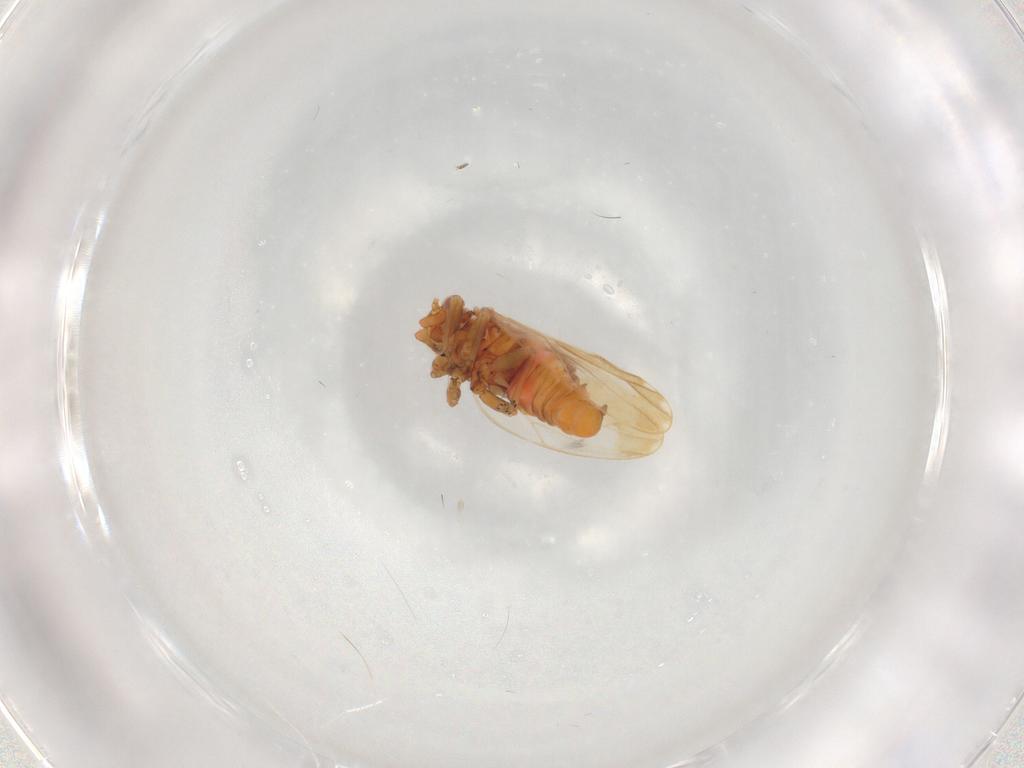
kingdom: Animalia
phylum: Arthropoda
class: Insecta
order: Hemiptera
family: Psyllidae
